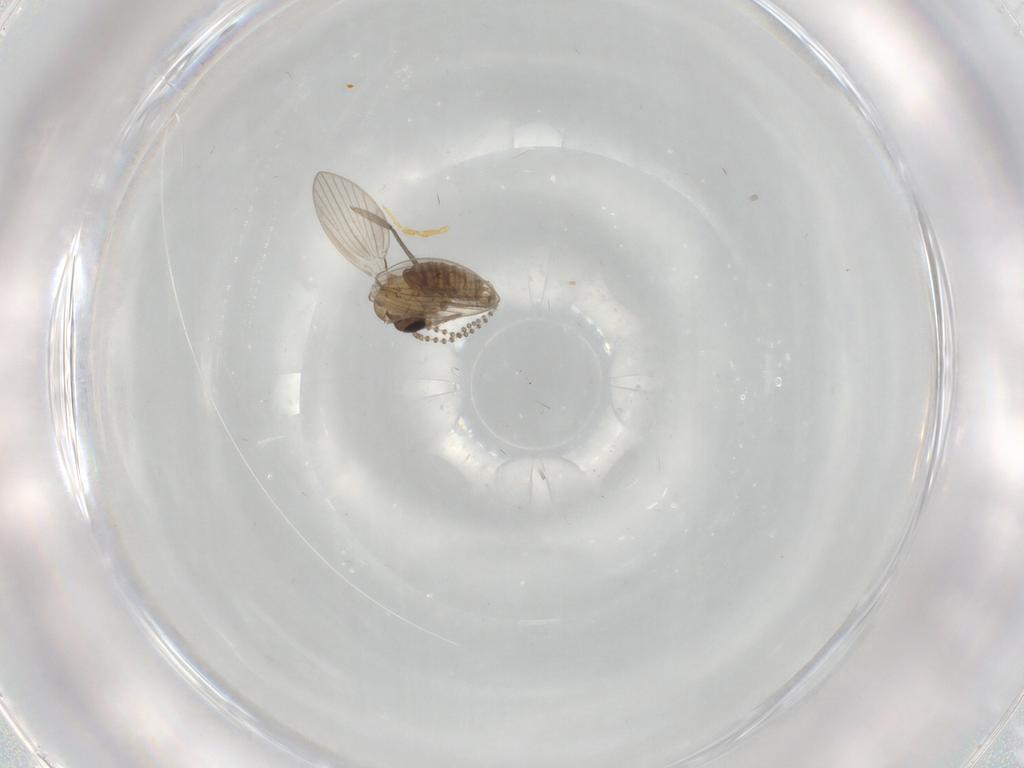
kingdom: Animalia
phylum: Arthropoda
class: Insecta
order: Diptera
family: Psychodidae
